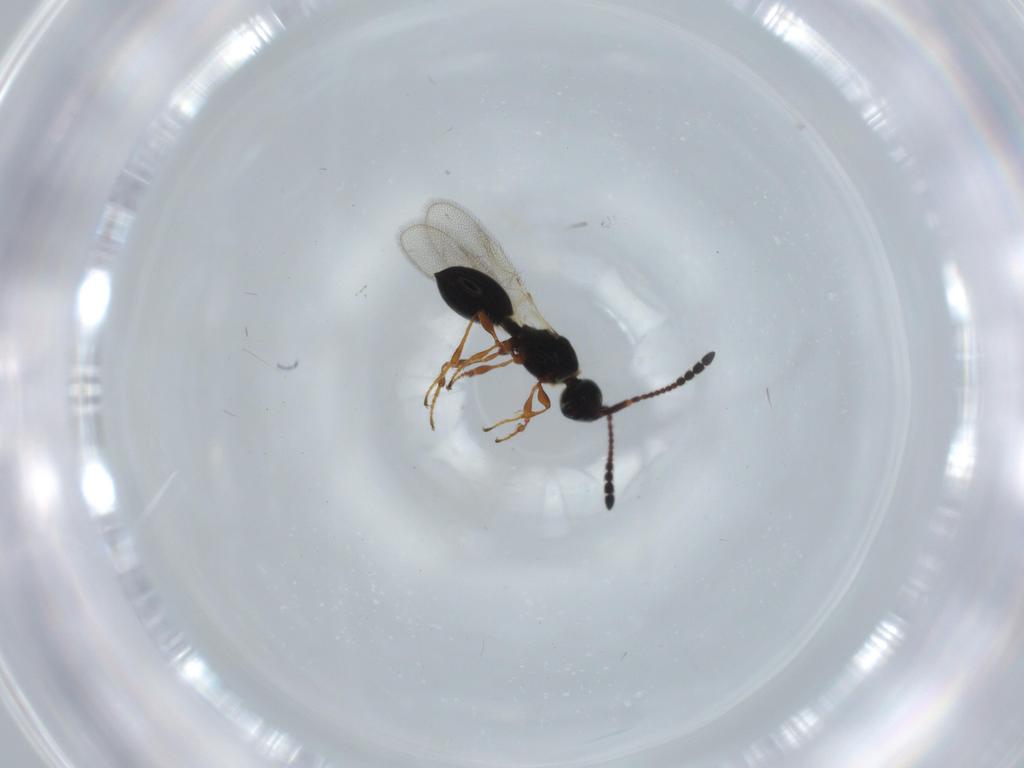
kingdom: Animalia
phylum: Arthropoda
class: Insecta
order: Hymenoptera
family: Diapriidae
